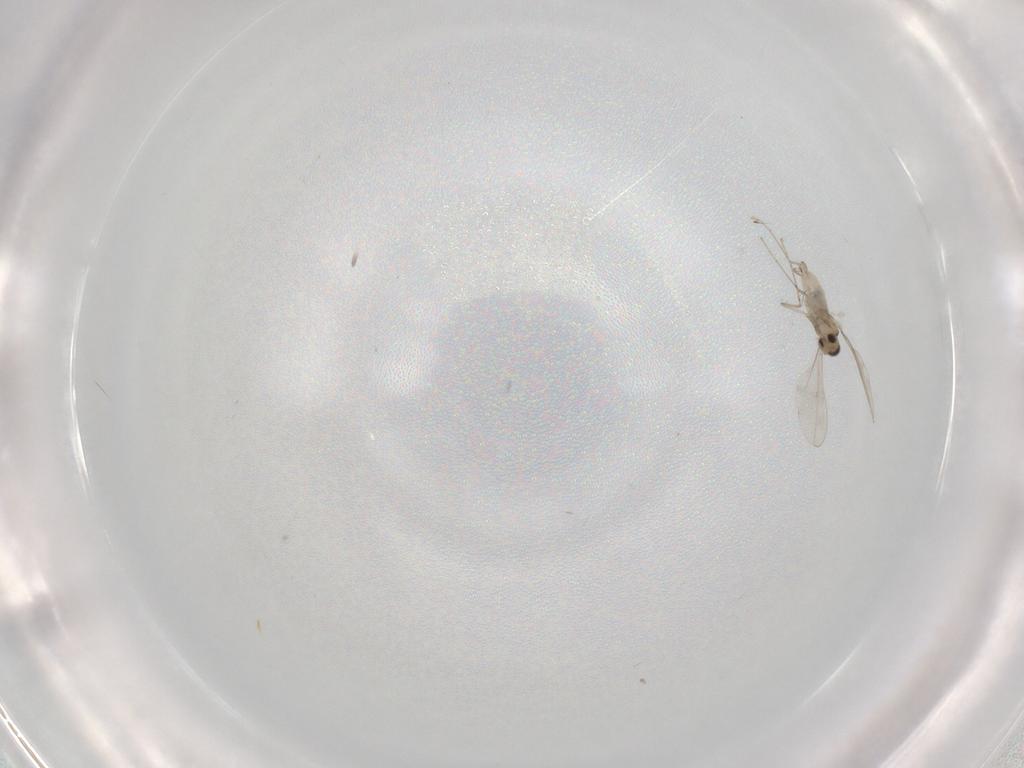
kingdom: Animalia
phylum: Arthropoda
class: Insecta
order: Diptera
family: Cecidomyiidae
